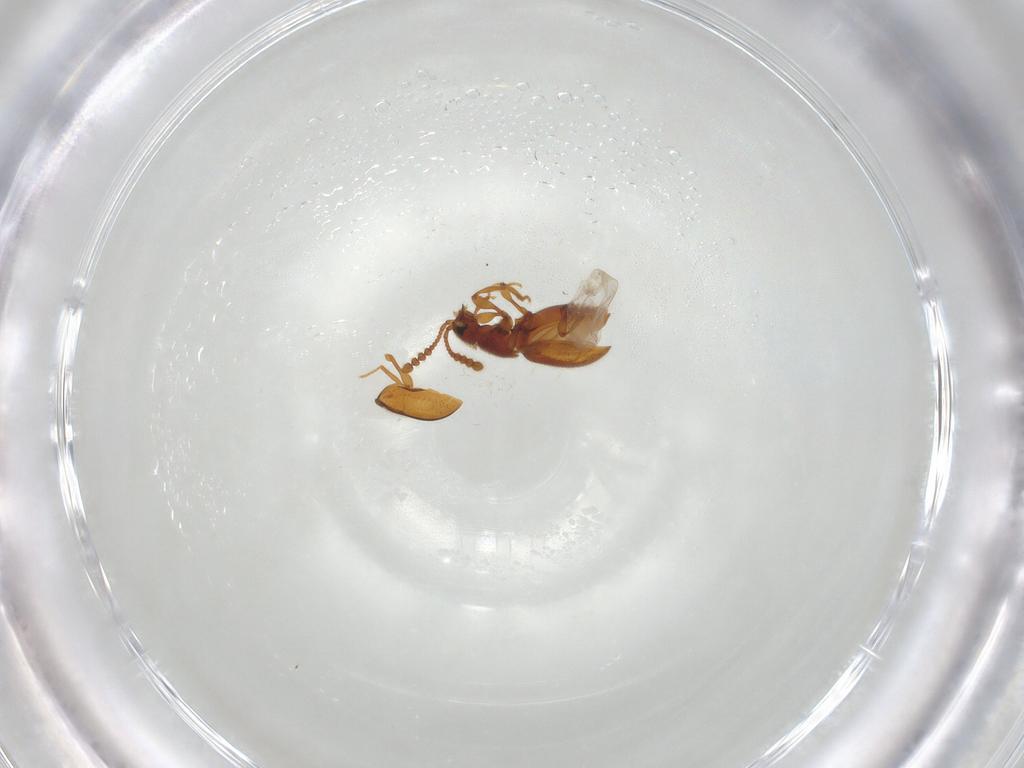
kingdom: Animalia
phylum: Arthropoda
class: Insecta
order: Coleoptera
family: Staphylinidae
